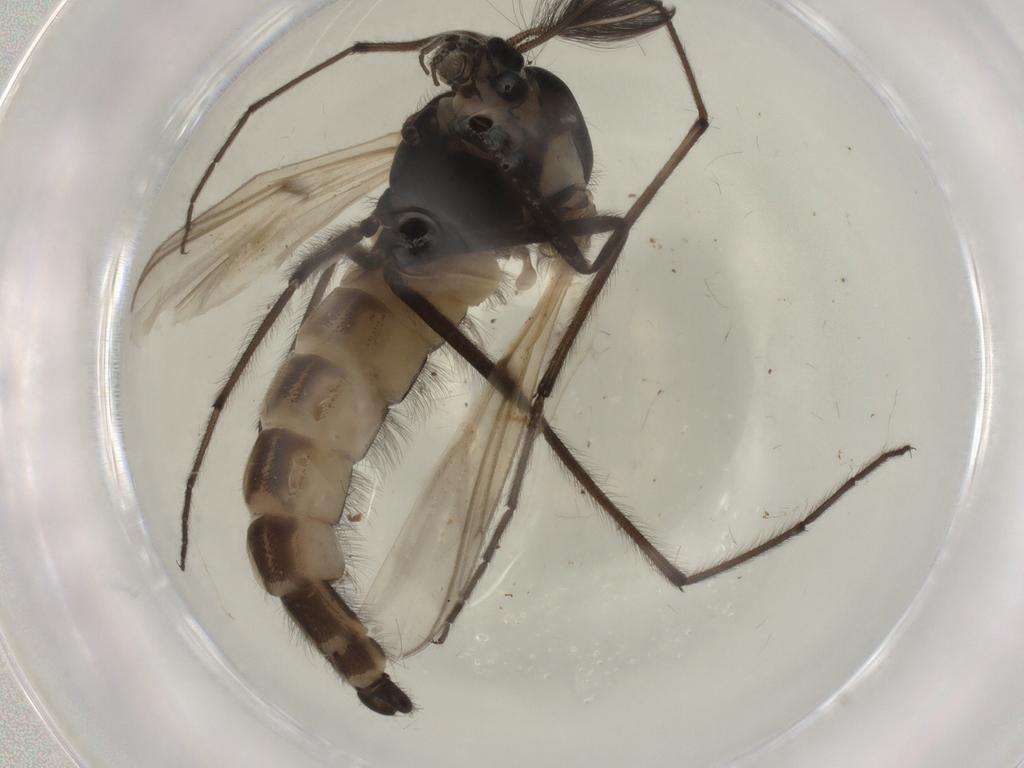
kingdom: Animalia
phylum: Arthropoda
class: Insecta
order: Diptera
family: Chironomidae
